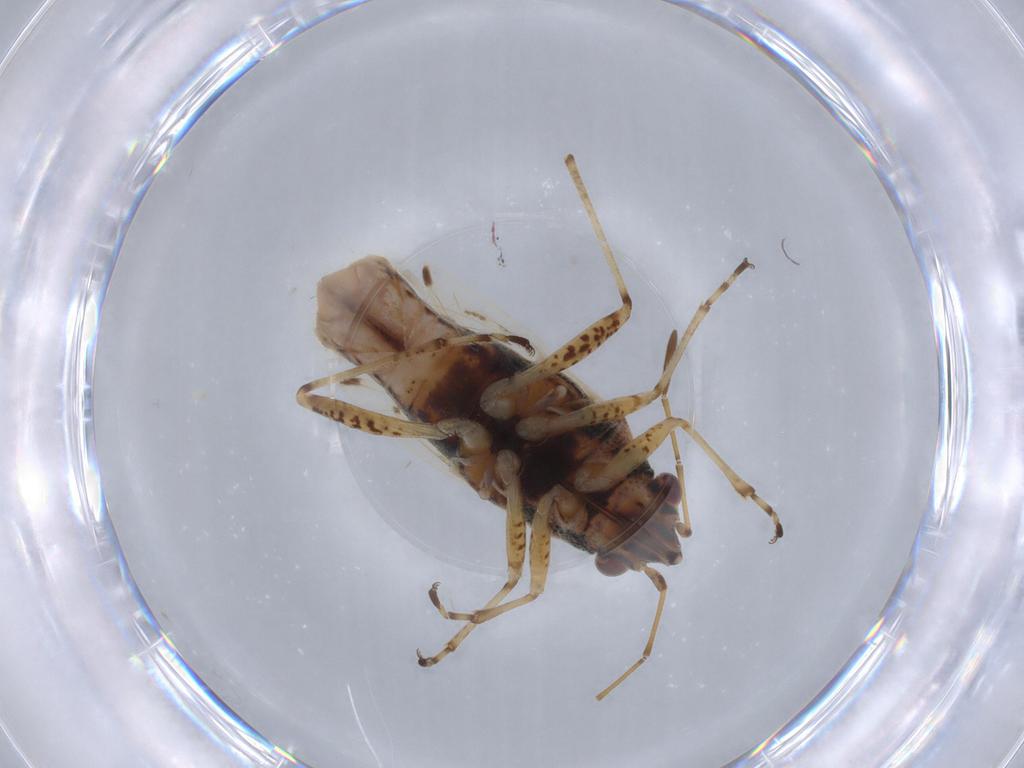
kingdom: Animalia
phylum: Arthropoda
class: Insecta
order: Hemiptera
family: Lygaeidae
